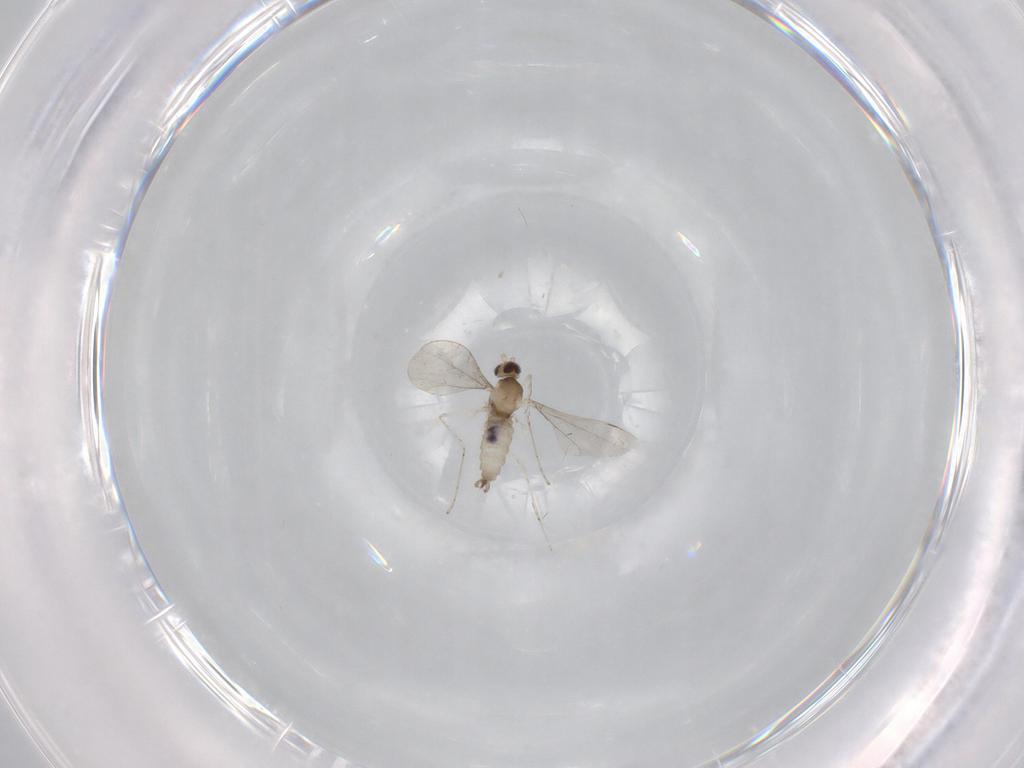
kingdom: Animalia
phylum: Arthropoda
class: Insecta
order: Diptera
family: Cecidomyiidae
